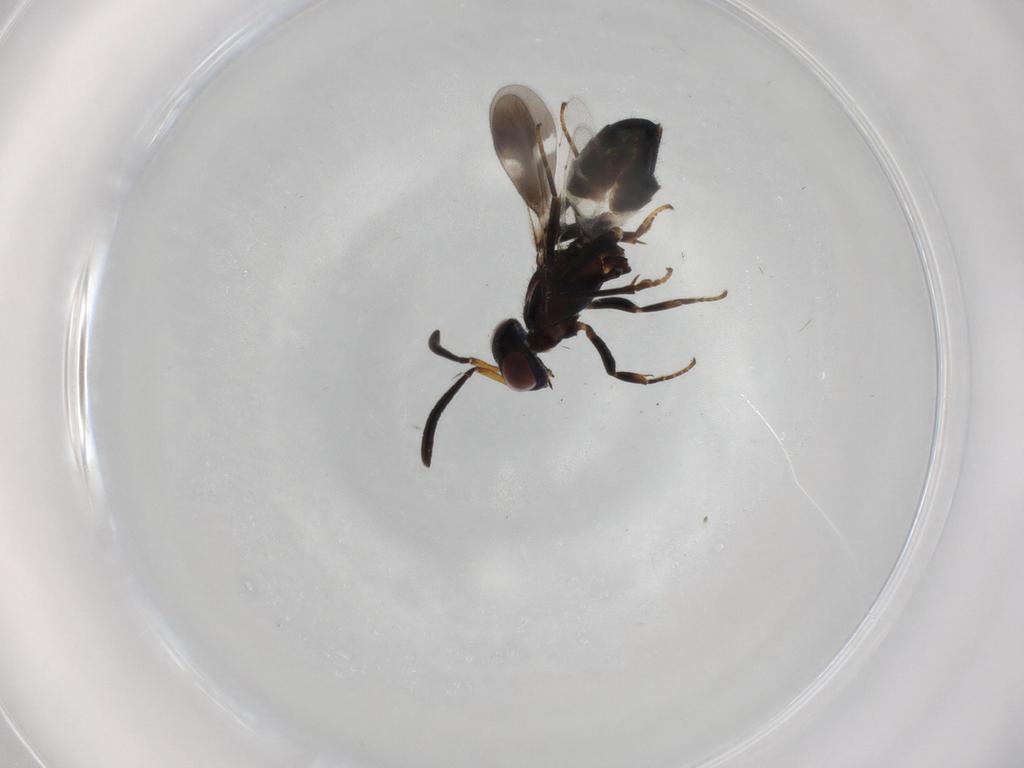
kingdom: Animalia
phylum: Arthropoda
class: Insecta
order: Hymenoptera
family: Eupelmidae
